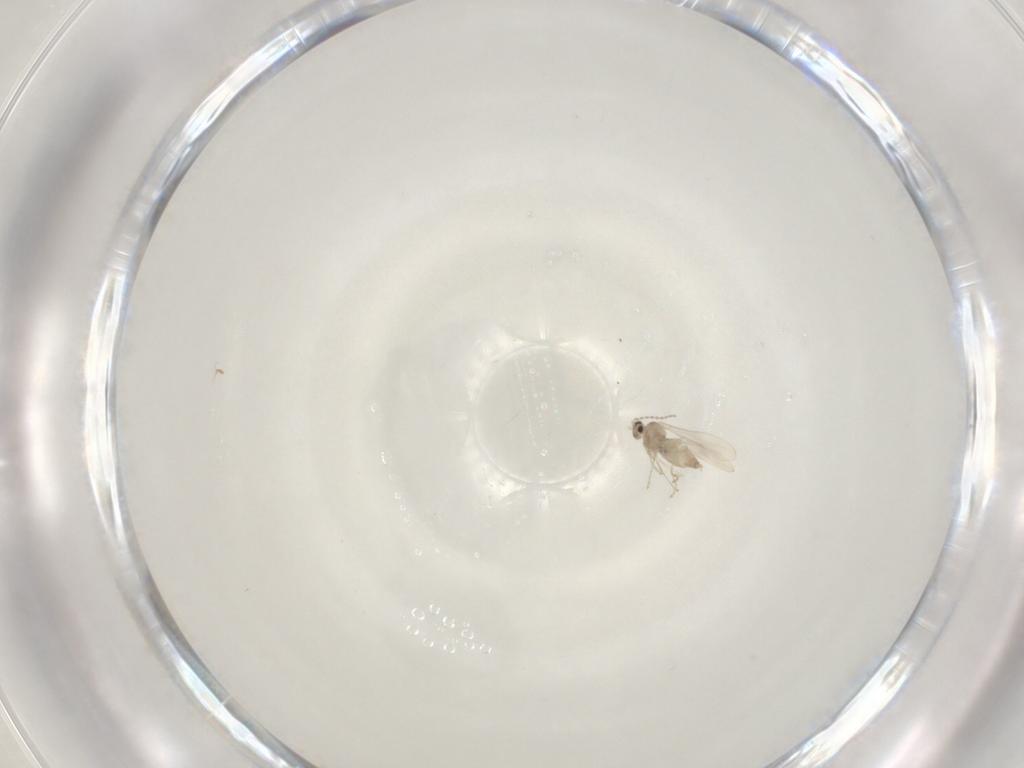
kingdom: Animalia
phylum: Arthropoda
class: Insecta
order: Diptera
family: Cecidomyiidae
